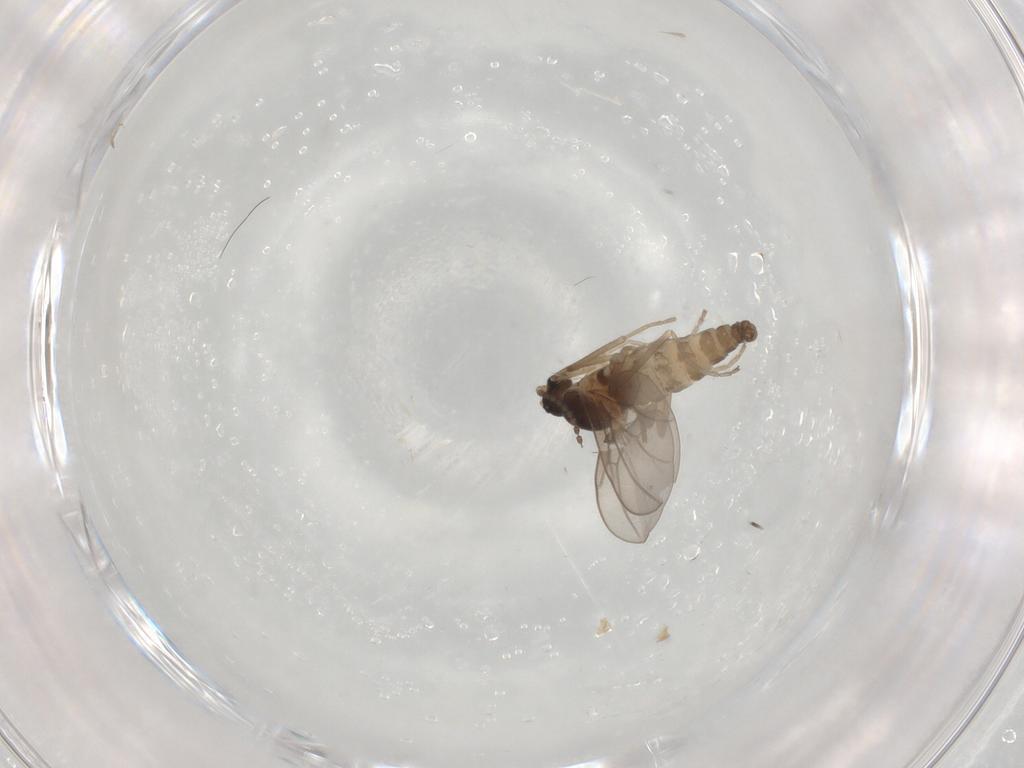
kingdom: Animalia
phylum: Arthropoda
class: Insecta
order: Diptera
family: Cecidomyiidae
